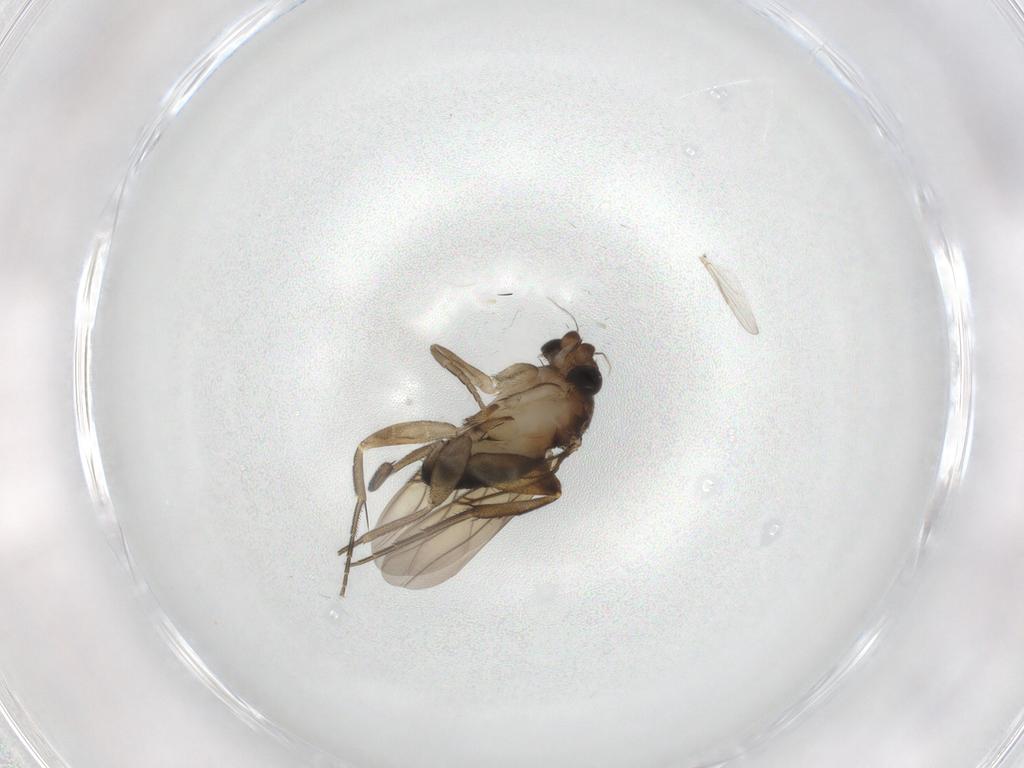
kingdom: Animalia
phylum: Arthropoda
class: Insecta
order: Diptera
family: Phoridae
